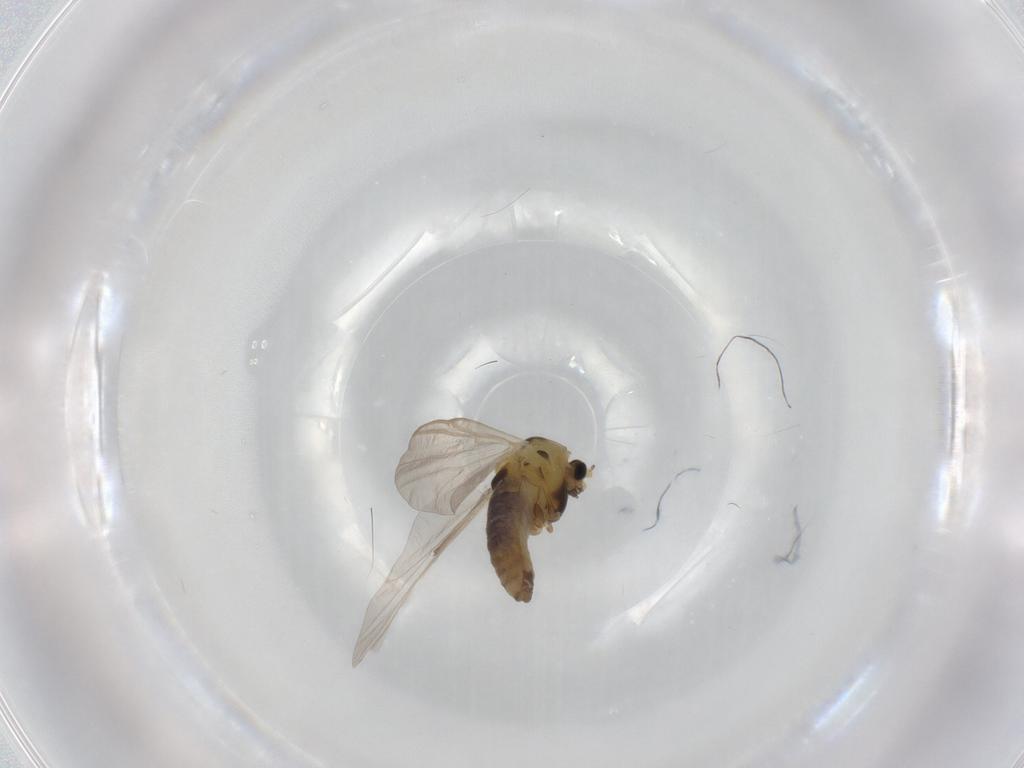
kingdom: Animalia
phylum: Arthropoda
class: Insecta
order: Diptera
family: Chironomidae
